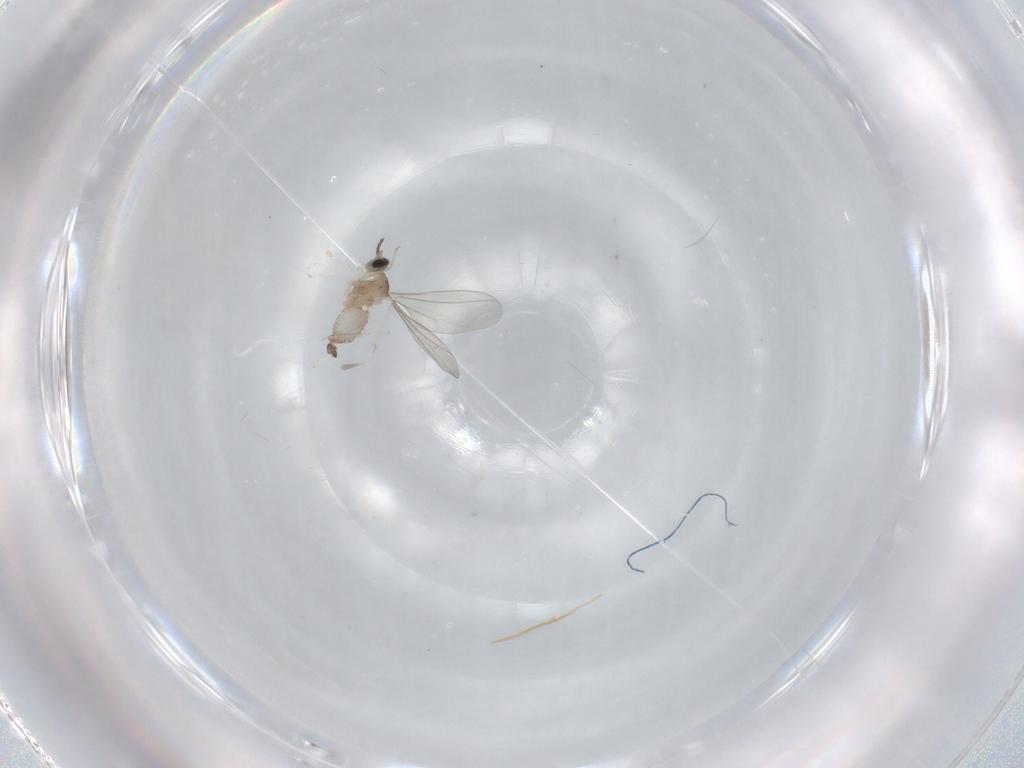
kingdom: Animalia
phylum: Arthropoda
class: Insecta
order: Diptera
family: Cecidomyiidae
